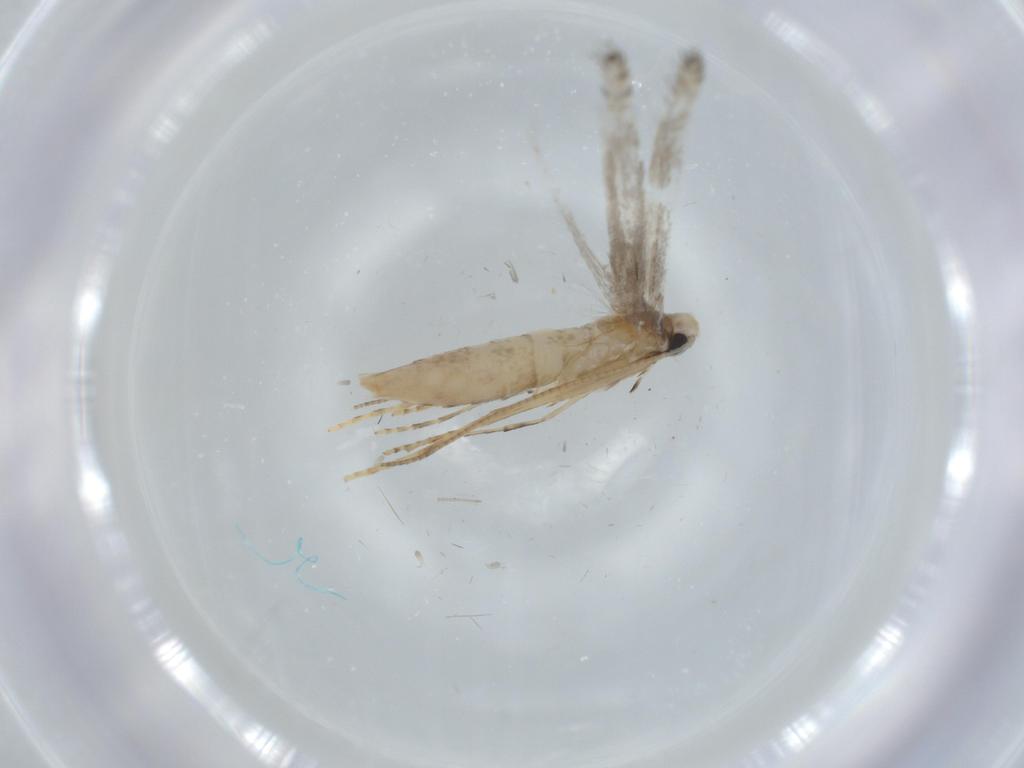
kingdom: Animalia
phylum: Arthropoda
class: Insecta
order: Lepidoptera
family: Gracillariidae
